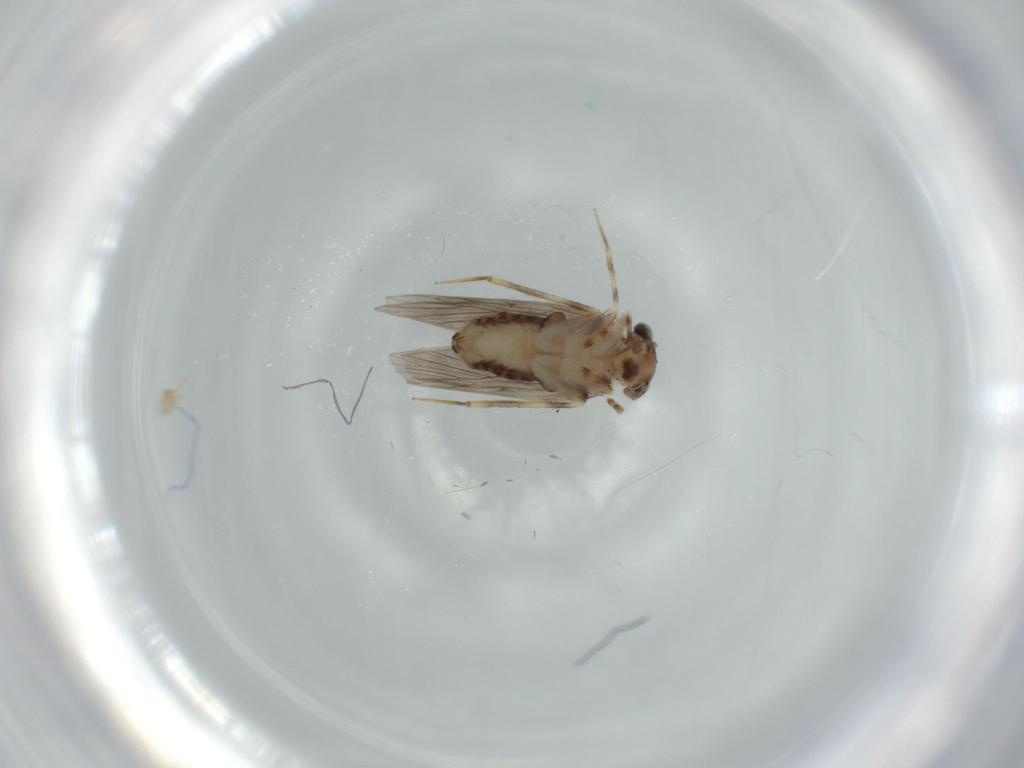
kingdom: Animalia
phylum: Arthropoda
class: Insecta
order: Psocodea
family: Lepidopsocidae
